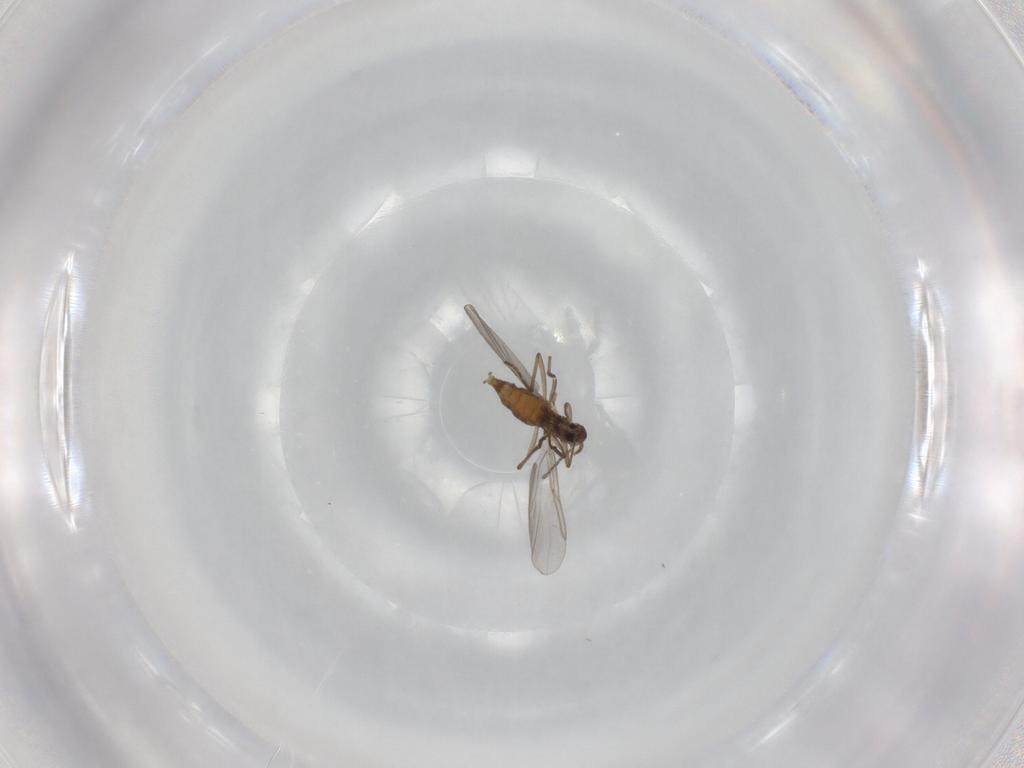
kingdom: Animalia
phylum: Arthropoda
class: Insecta
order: Diptera
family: Cecidomyiidae
